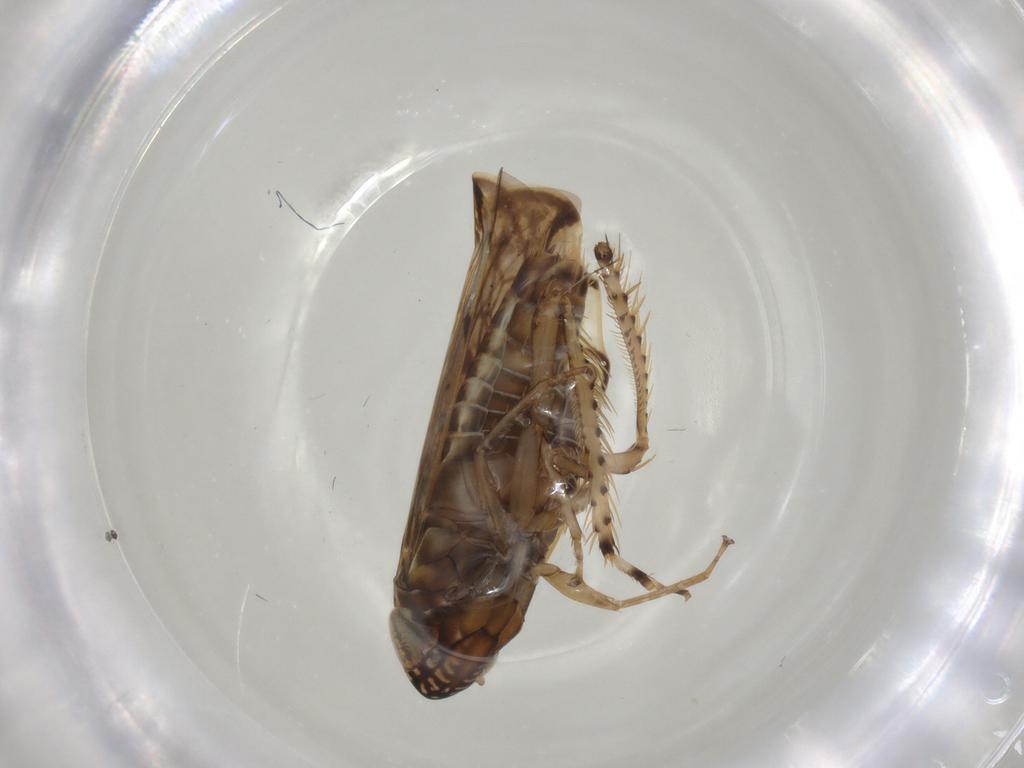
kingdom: Animalia
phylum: Arthropoda
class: Insecta
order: Hemiptera
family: Cicadellidae
